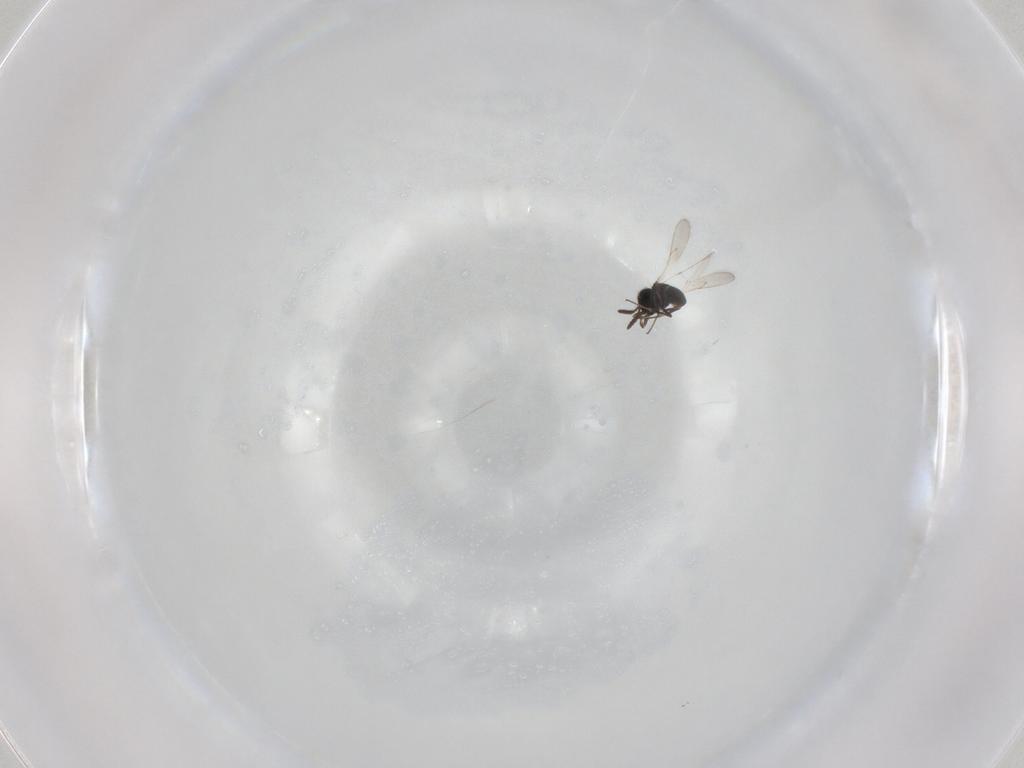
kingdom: Animalia
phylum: Arthropoda
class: Insecta
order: Hymenoptera
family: Scelionidae
